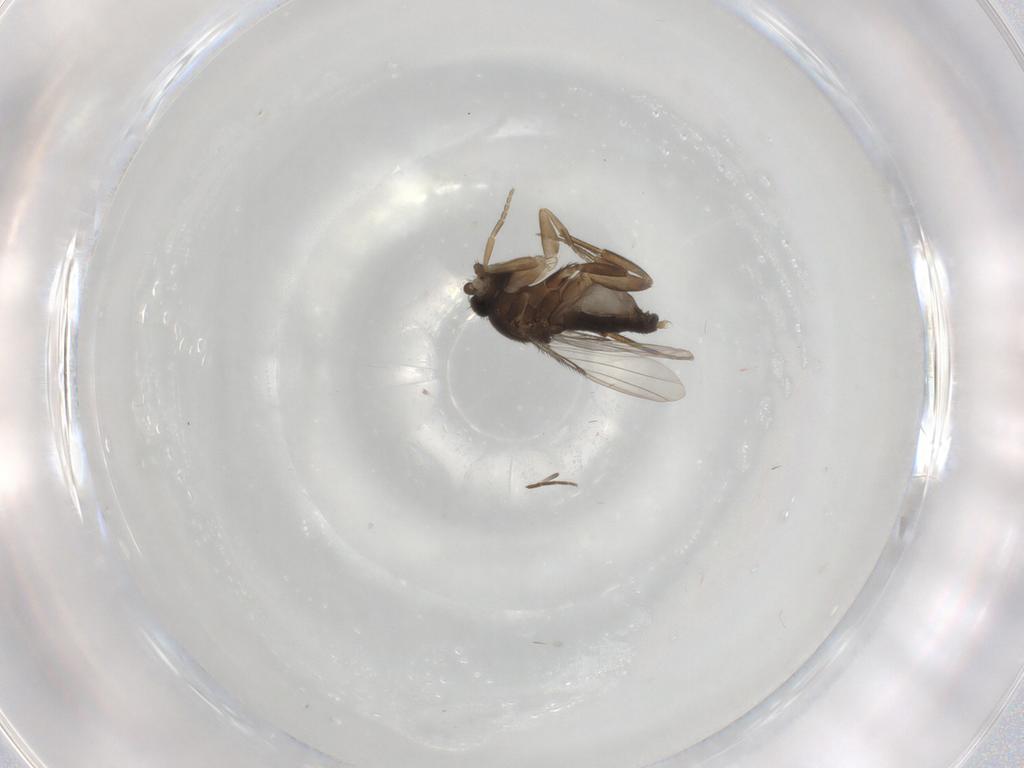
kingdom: Animalia
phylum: Arthropoda
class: Insecta
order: Diptera
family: Phoridae
